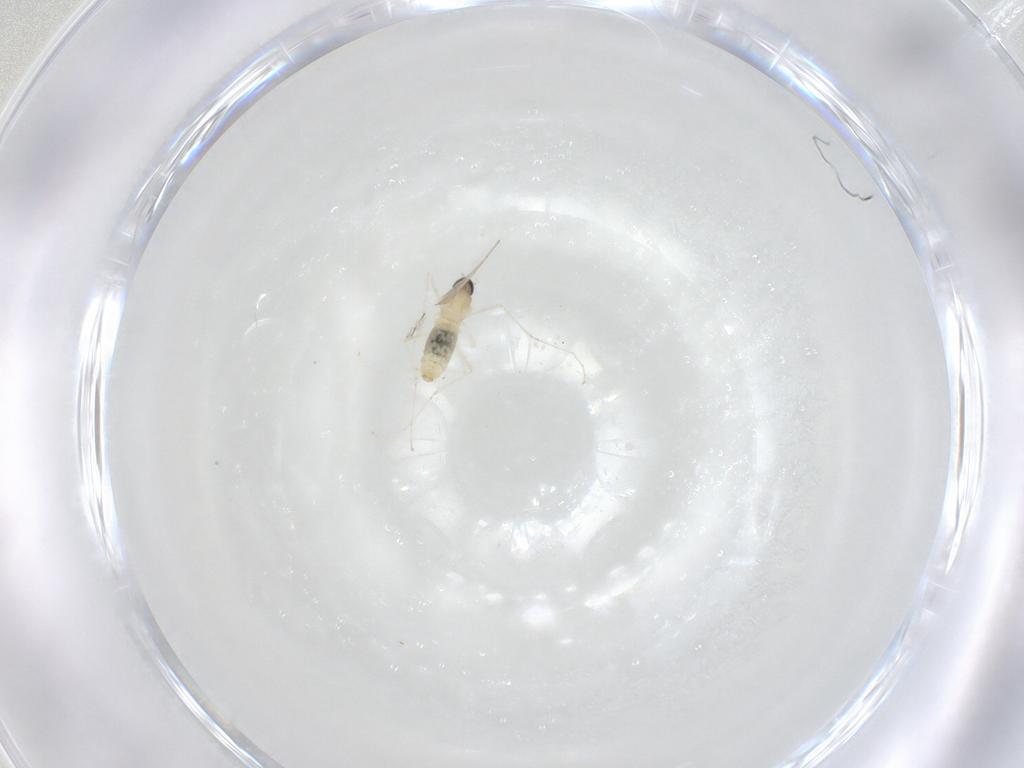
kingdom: Animalia
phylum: Arthropoda
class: Insecta
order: Diptera
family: Cecidomyiidae
